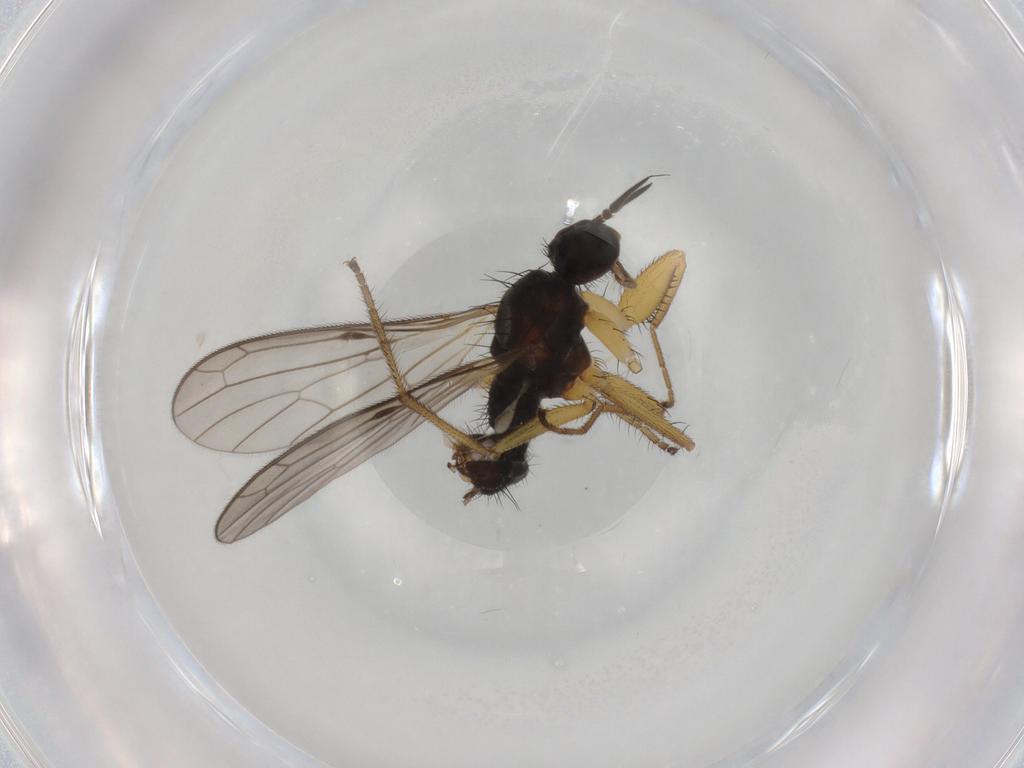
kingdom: Animalia
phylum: Arthropoda
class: Insecta
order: Diptera
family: Empididae
